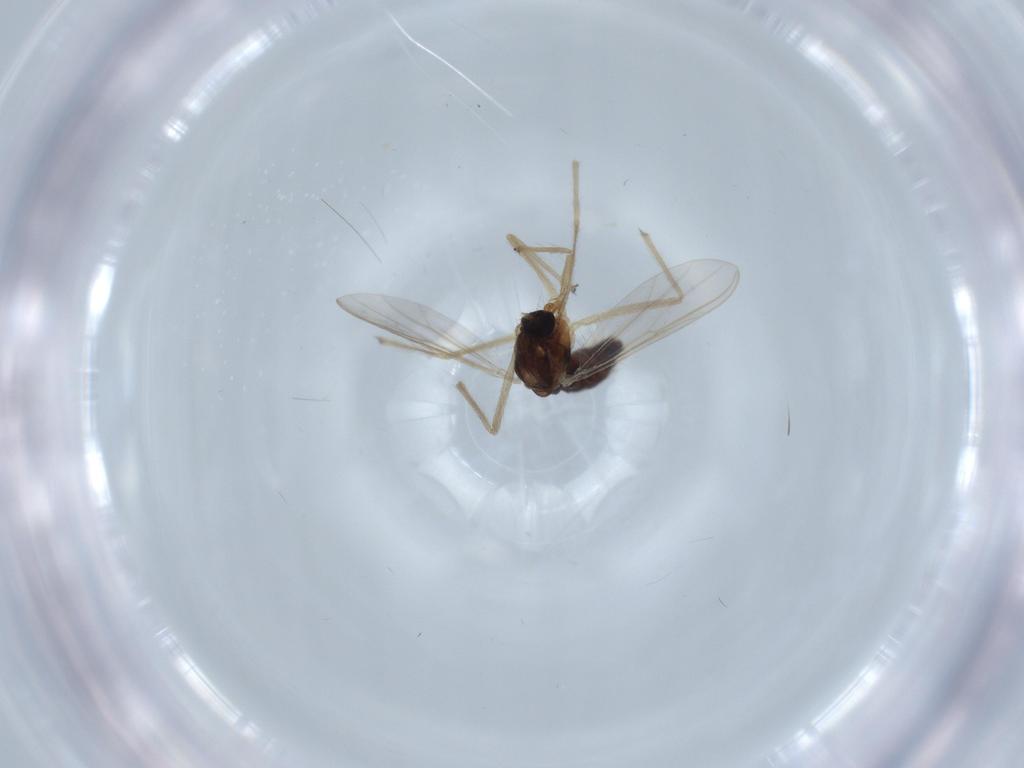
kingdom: Animalia
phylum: Arthropoda
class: Insecta
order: Diptera
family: Chironomidae
